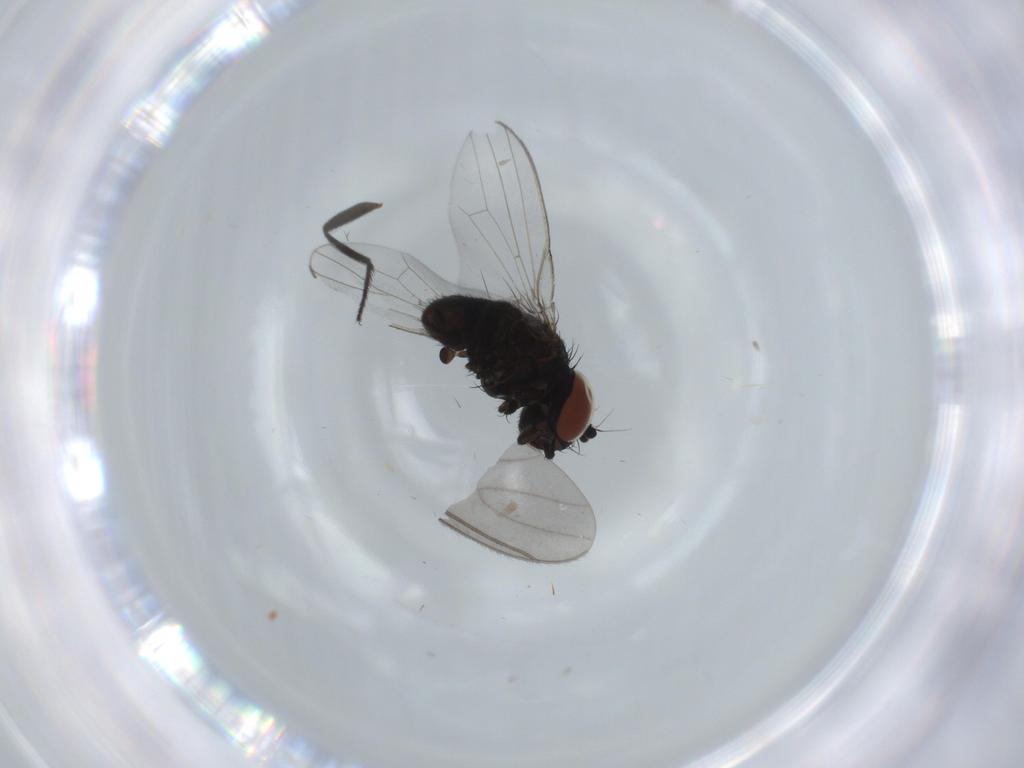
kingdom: Animalia
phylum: Arthropoda
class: Insecta
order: Diptera
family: Milichiidae
